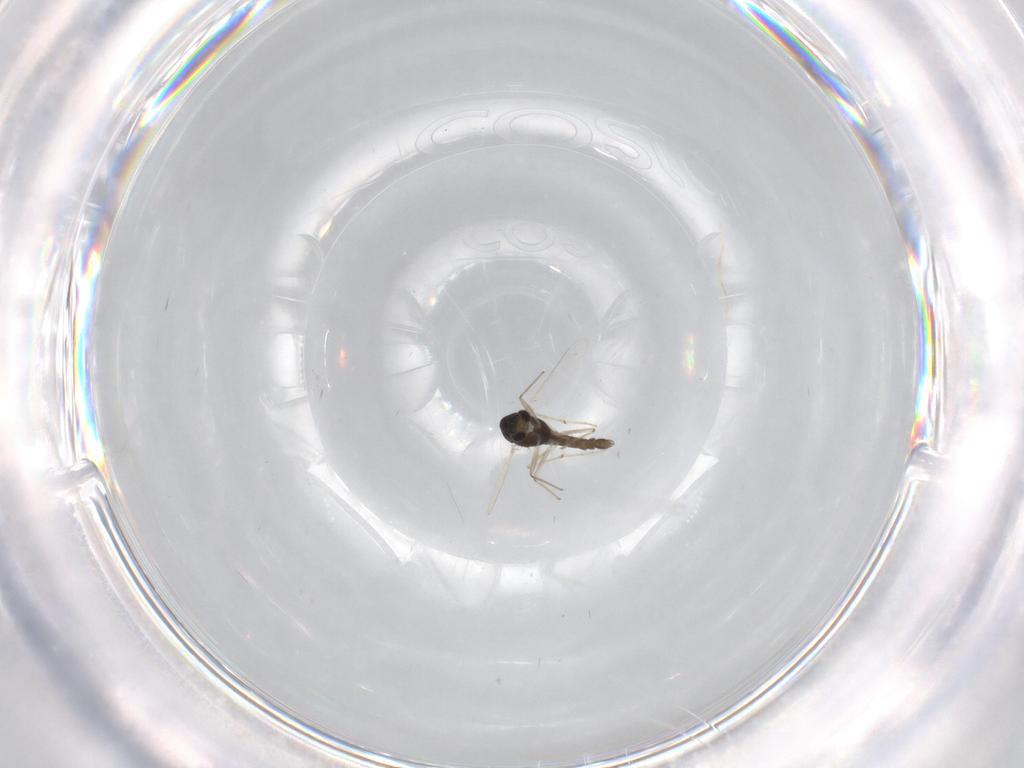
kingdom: Animalia
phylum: Arthropoda
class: Insecta
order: Diptera
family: Chironomidae
